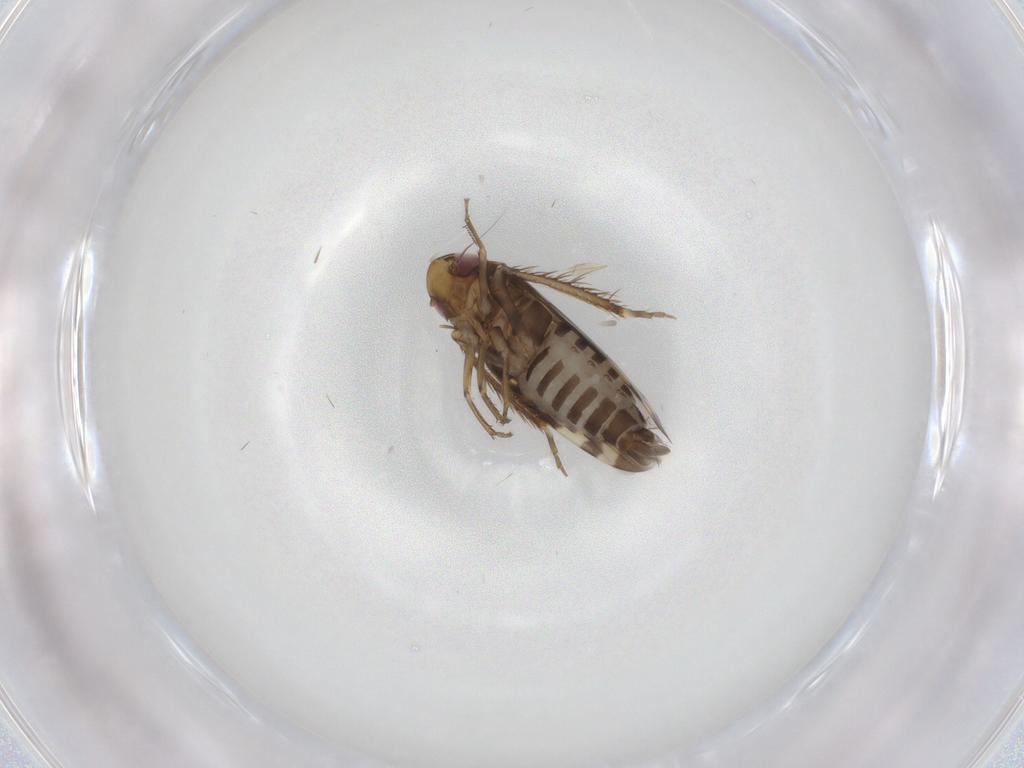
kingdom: Animalia
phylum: Arthropoda
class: Insecta
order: Hemiptera
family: Cicadellidae
